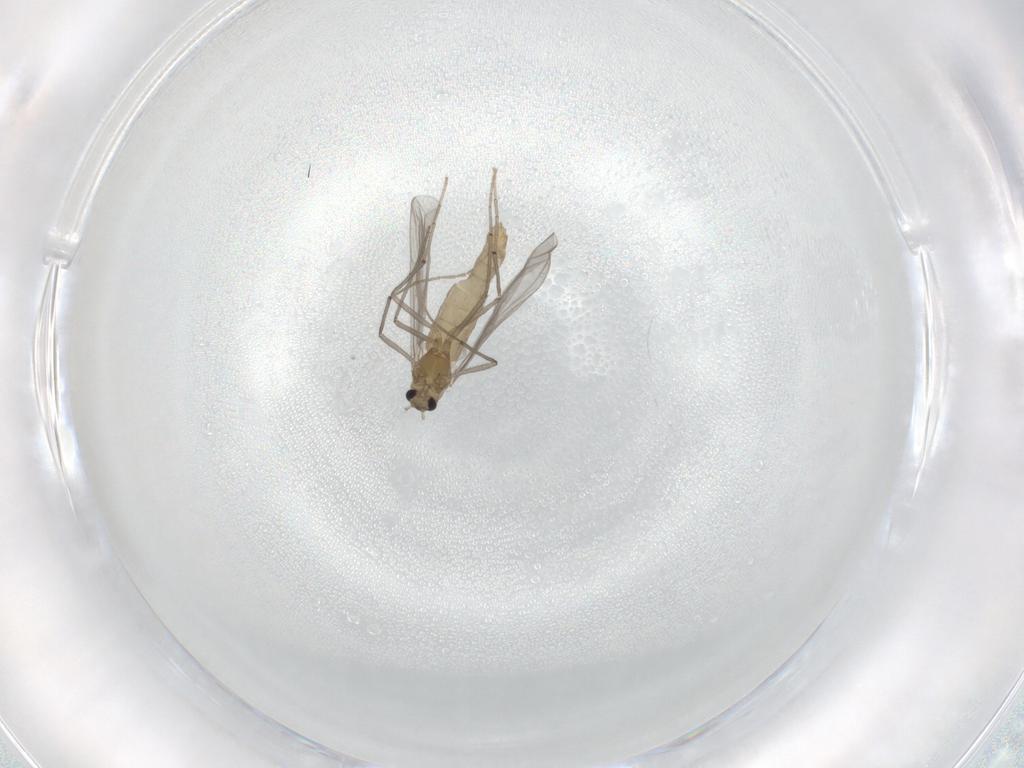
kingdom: Animalia
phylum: Arthropoda
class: Insecta
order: Diptera
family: Chironomidae
